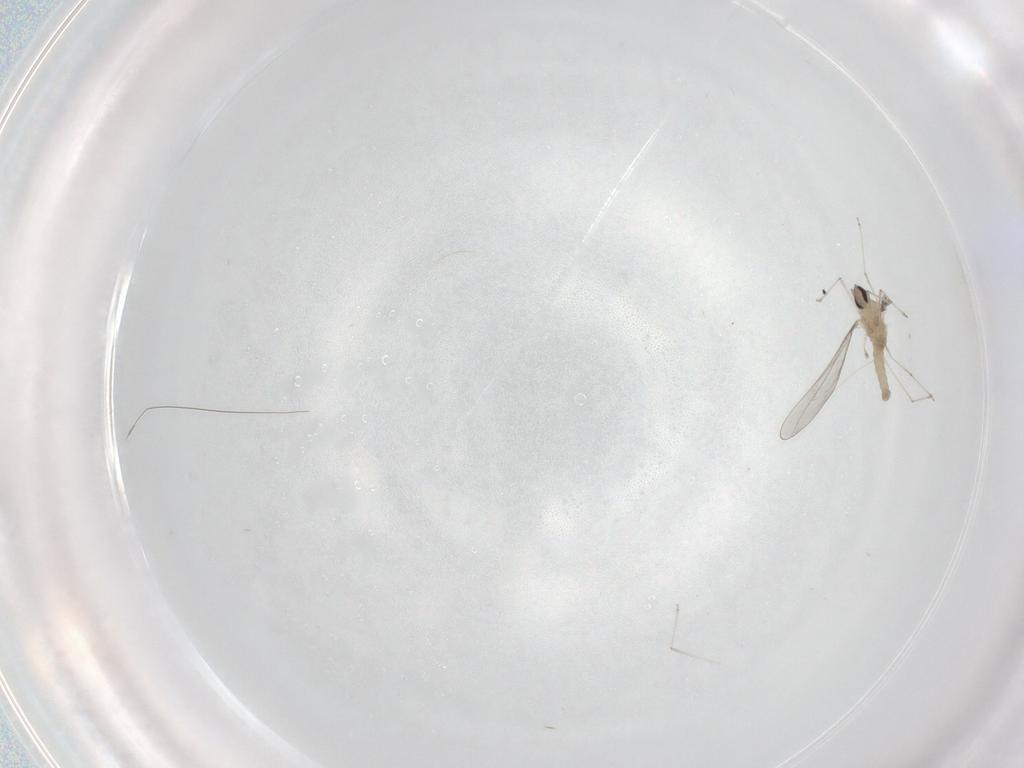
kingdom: Animalia
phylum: Arthropoda
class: Insecta
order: Diptera
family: Cecidomyiidae
